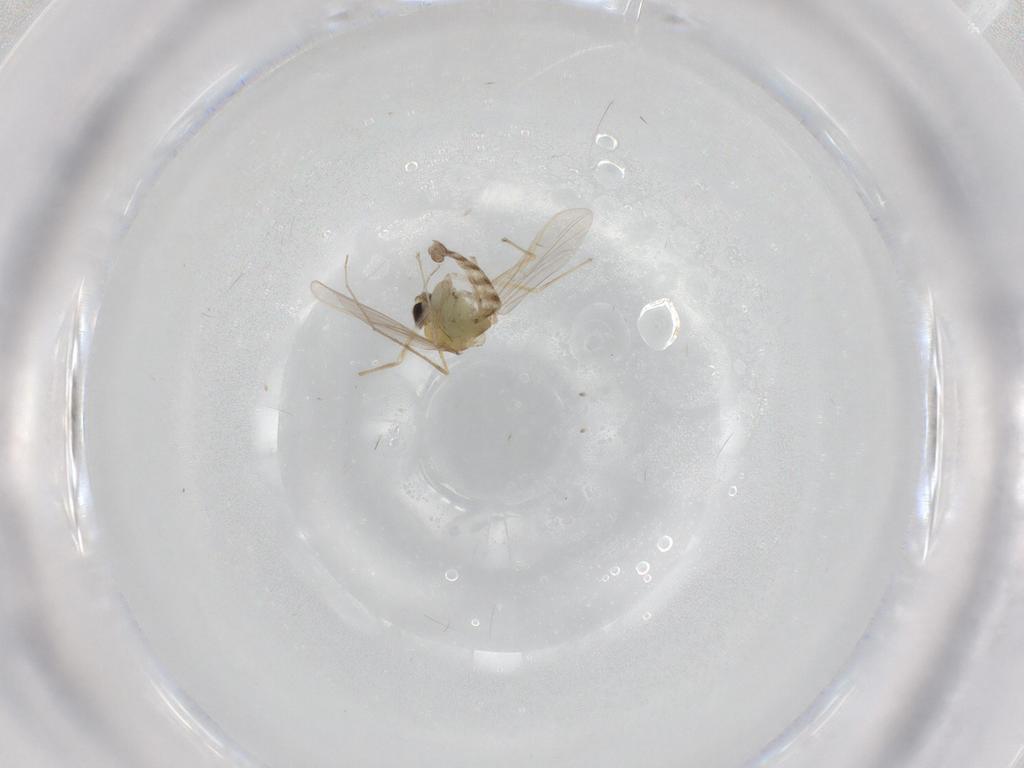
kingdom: Animalia
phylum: Arthropoda
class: Insecta
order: Diptera
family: Chironomidae
